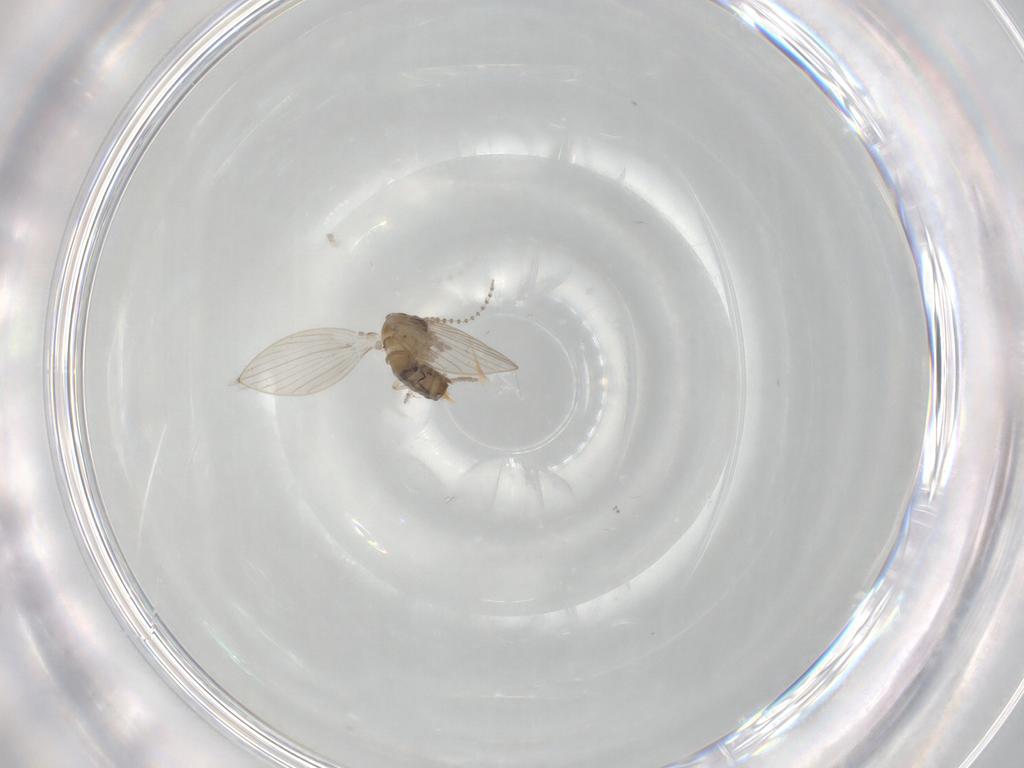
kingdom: Animalia
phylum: Arthropoda
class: Insecta
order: Diptera
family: Psychodidae
